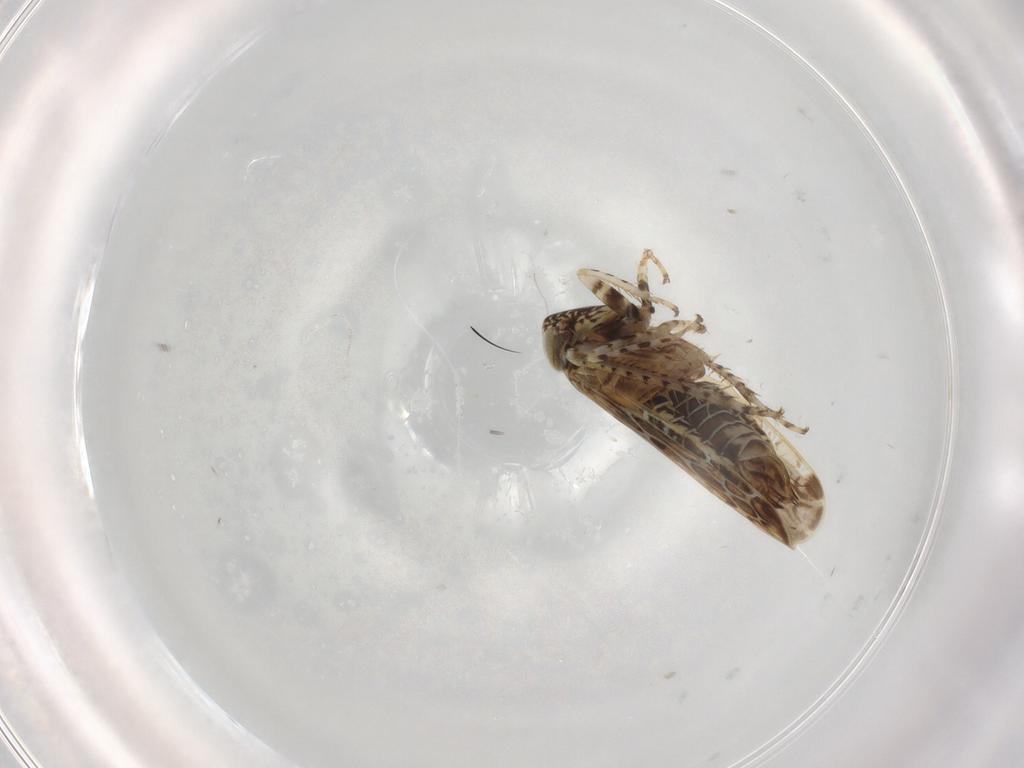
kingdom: Animalia
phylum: Arthropoda
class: Insecta
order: Hemiptera
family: Cicadellidae
